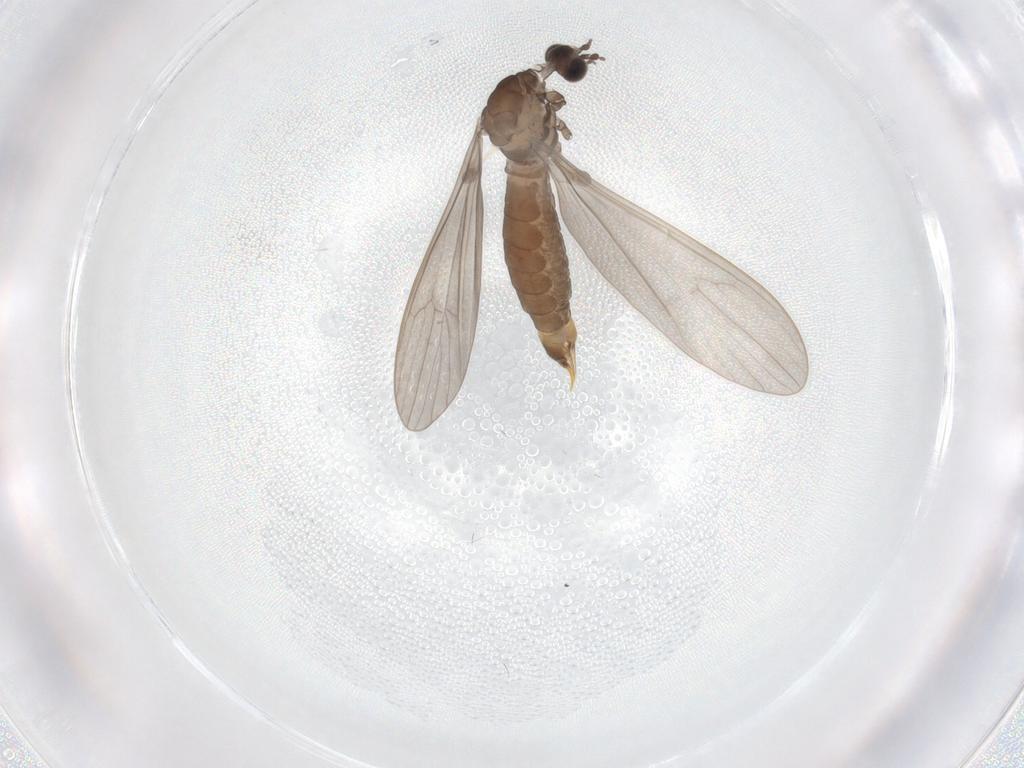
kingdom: Animalia
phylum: Arthropoda
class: Insecta
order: Diptera
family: Limoniidae
